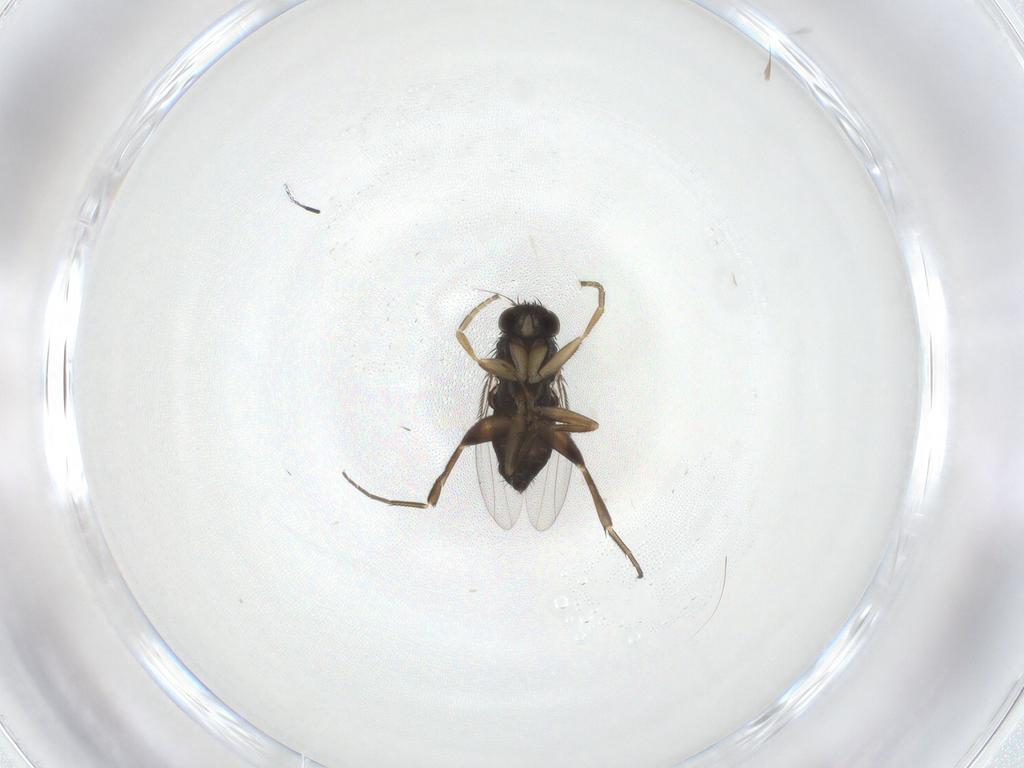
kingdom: Animalia
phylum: Arthropoda
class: Insecta
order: Diptera
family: Phoridae
